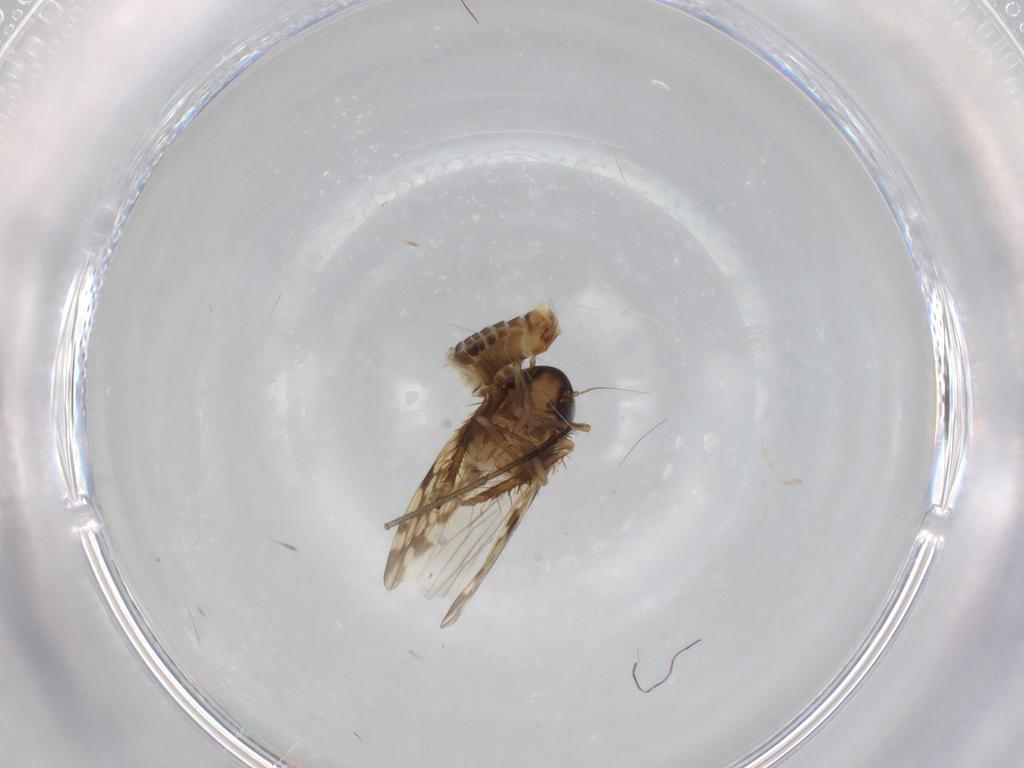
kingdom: Animalia
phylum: Arthropoda
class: Insecta
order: Hemiptera
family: Cicadellidae
